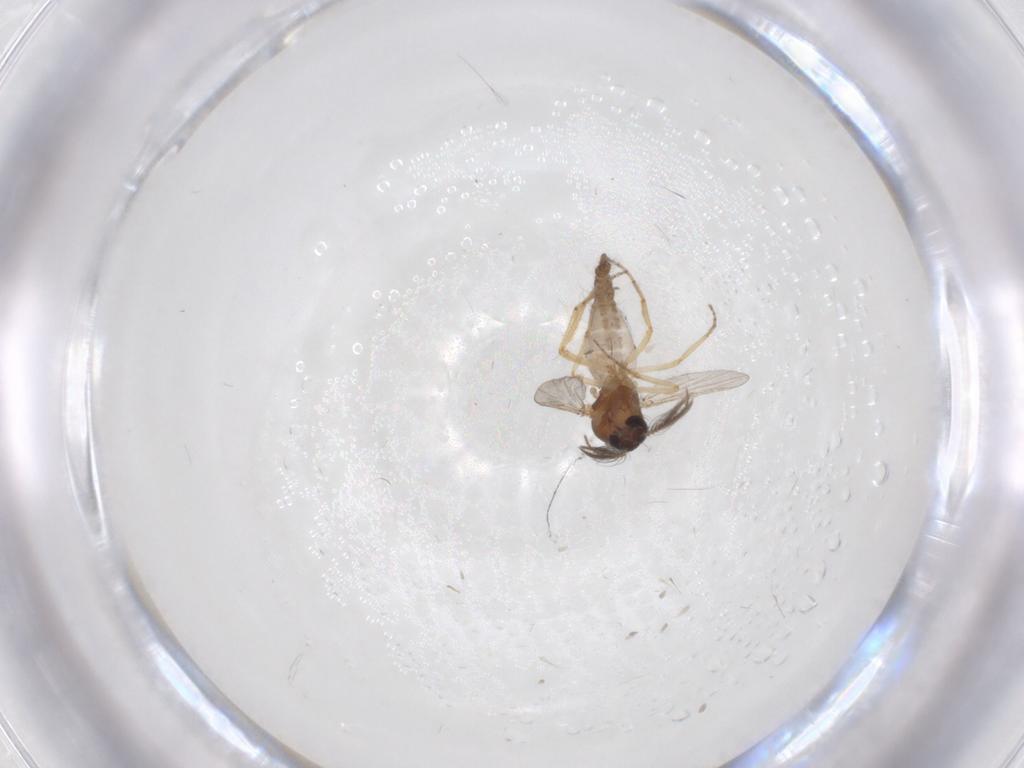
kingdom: Animalia
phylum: Arthropoda
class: Insecta
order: Diptera
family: Ceratopogonidae
